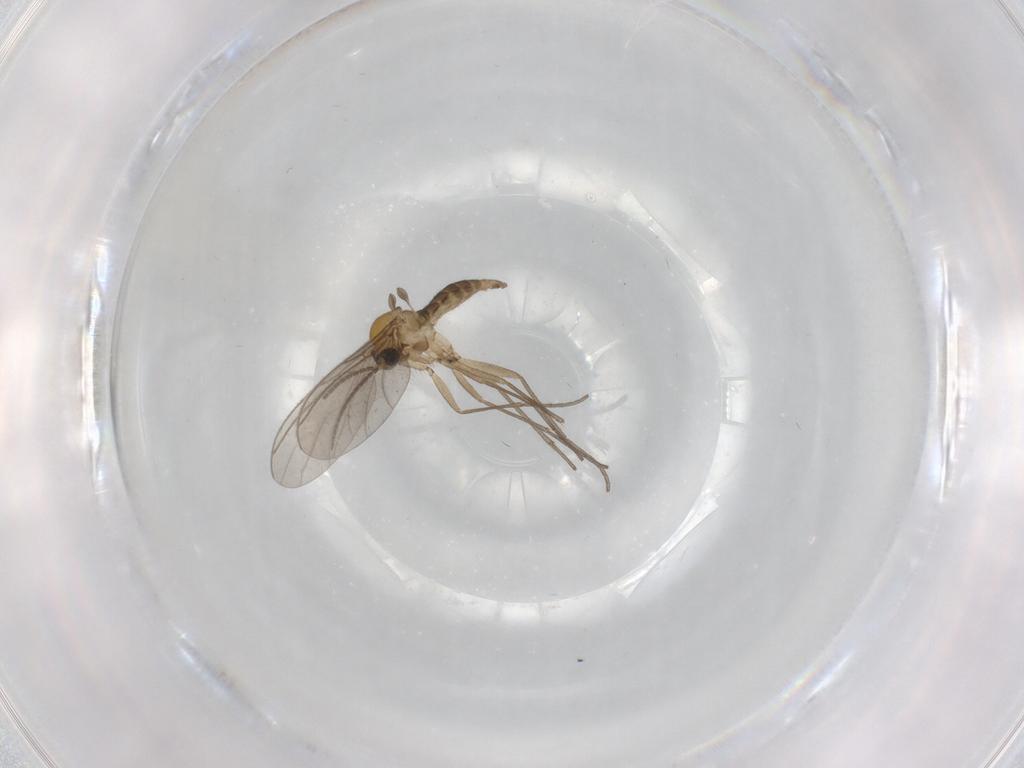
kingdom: Animalia
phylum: Arthropoda
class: Insecta
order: Diptera
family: Sciaridae
